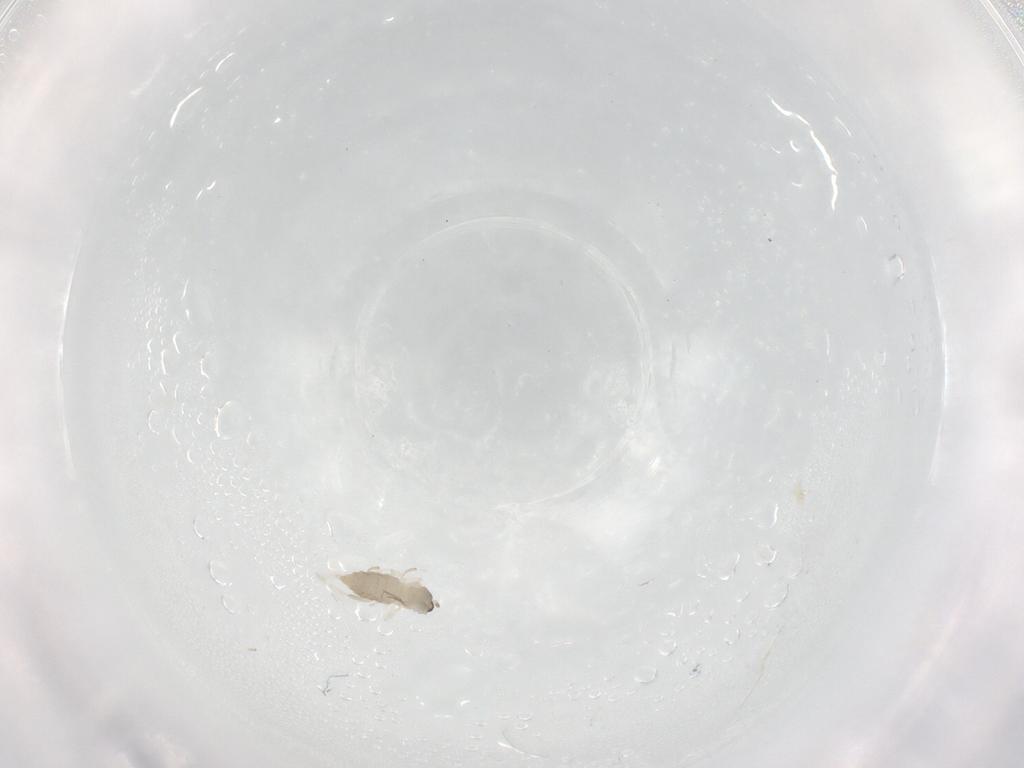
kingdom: Animalia
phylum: Arthropoda
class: Insecta
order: Diptera
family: Cecidomyiidae
